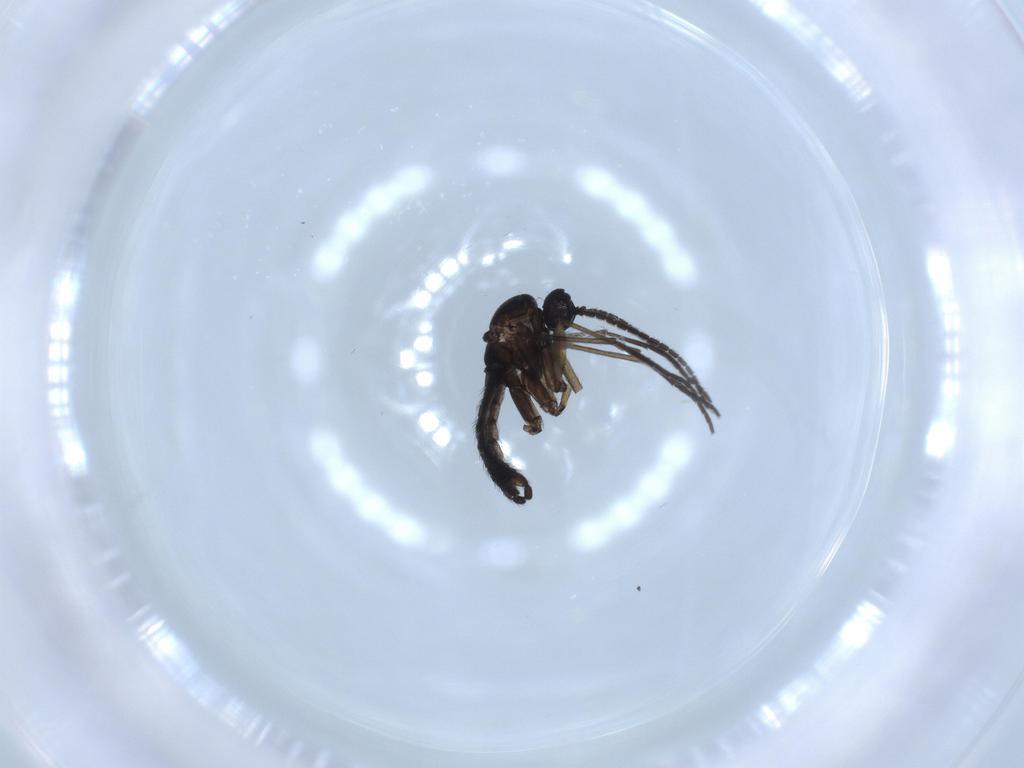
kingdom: Animalia
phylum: Arthropoda
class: Insecta
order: Diptera
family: Sciaridae
